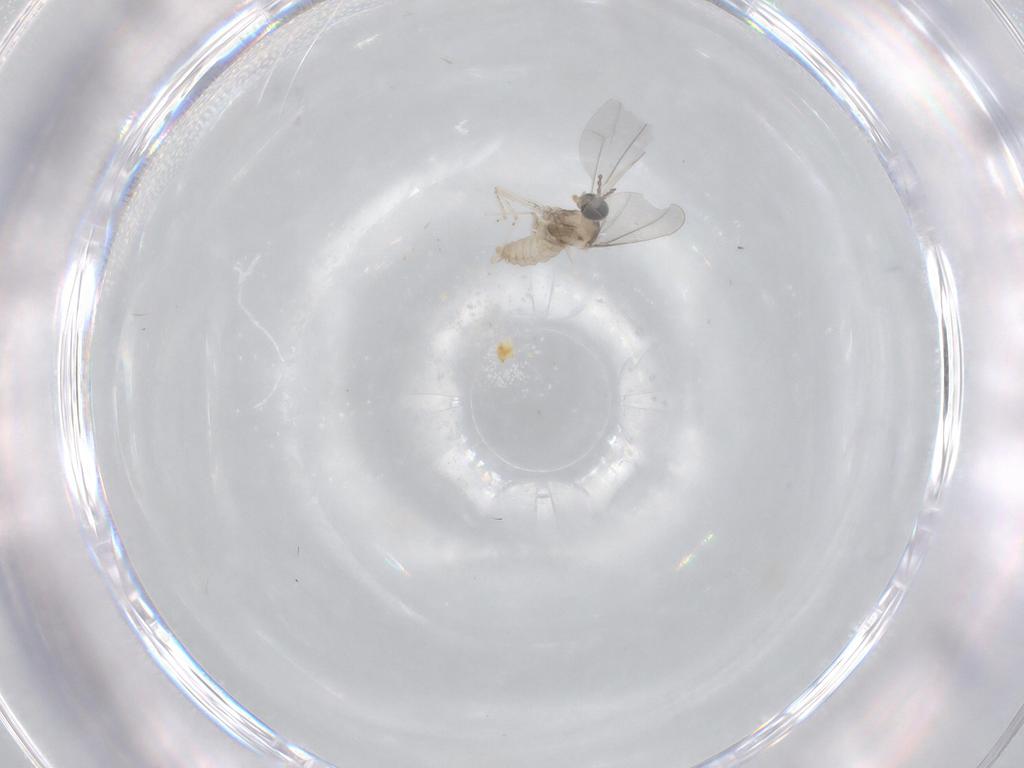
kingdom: Animalia
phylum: Arthropoda
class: Insecta
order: Diptera
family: Cecidomyiidae
